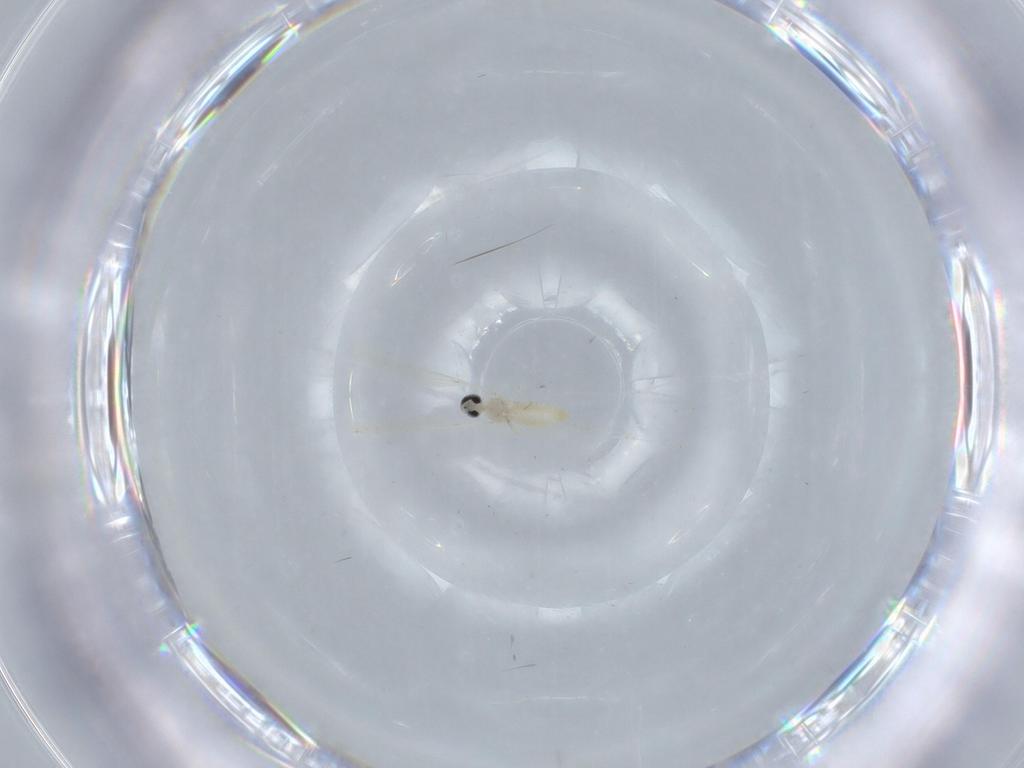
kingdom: Animalia
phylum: Arthropoda
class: Insecta
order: Diptera
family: Cecidomyiidae
